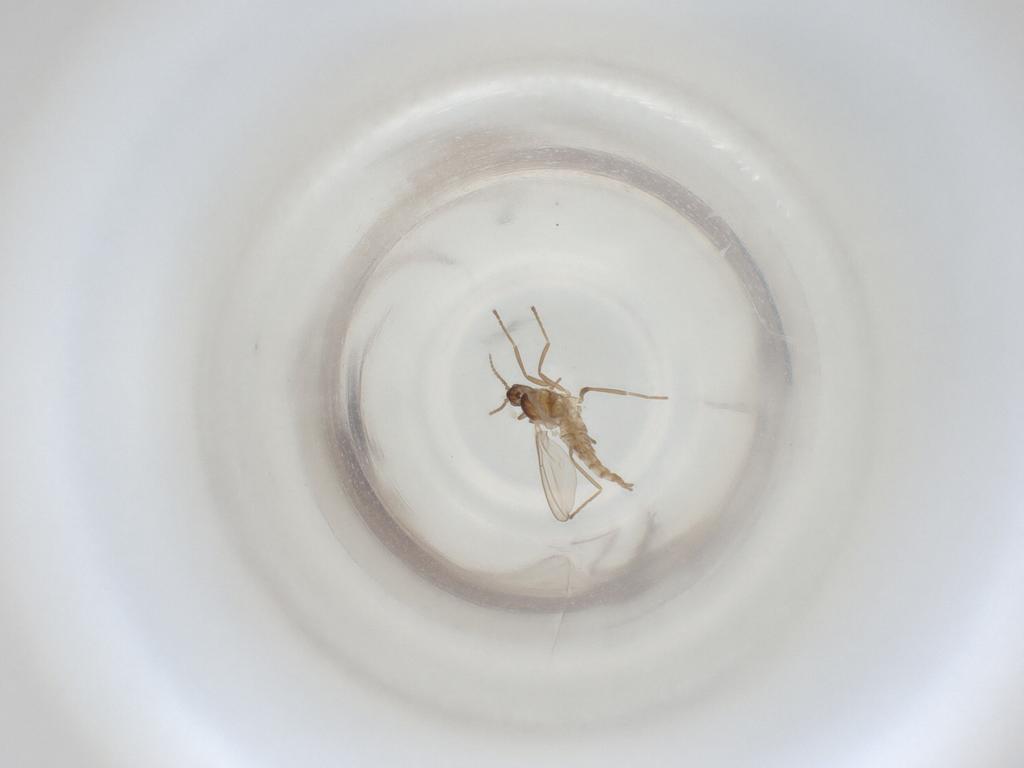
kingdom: Animalia
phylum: Arthropoda
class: Insecta
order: Diptera
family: Cecidomyiidae
